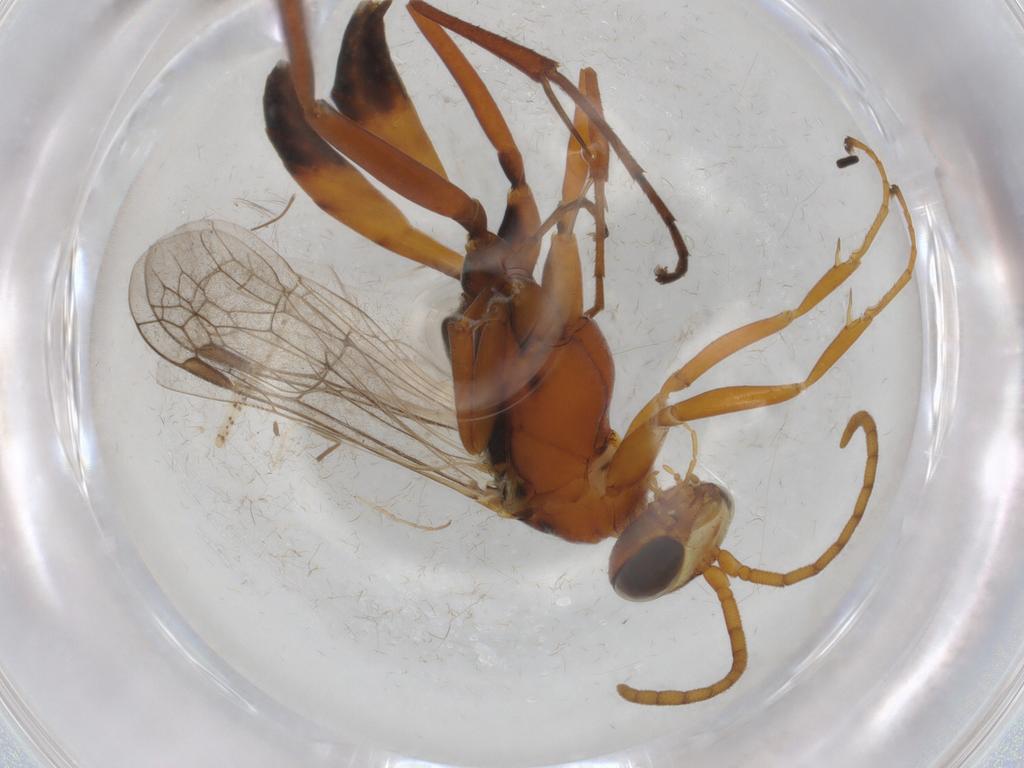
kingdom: Animalia
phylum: Arthropoda
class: Insecta
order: Hymenoptera
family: Pompilidae
